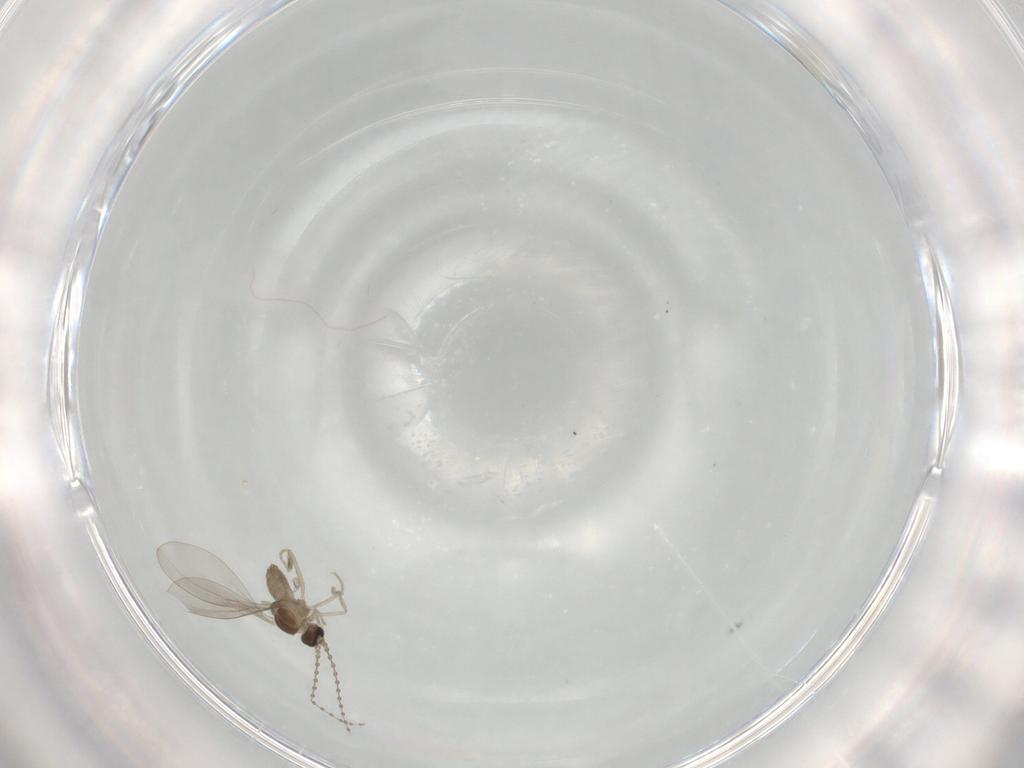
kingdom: Animalia
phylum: Arthropoda
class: Insecta
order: Diptera
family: Cecidomyiidae
